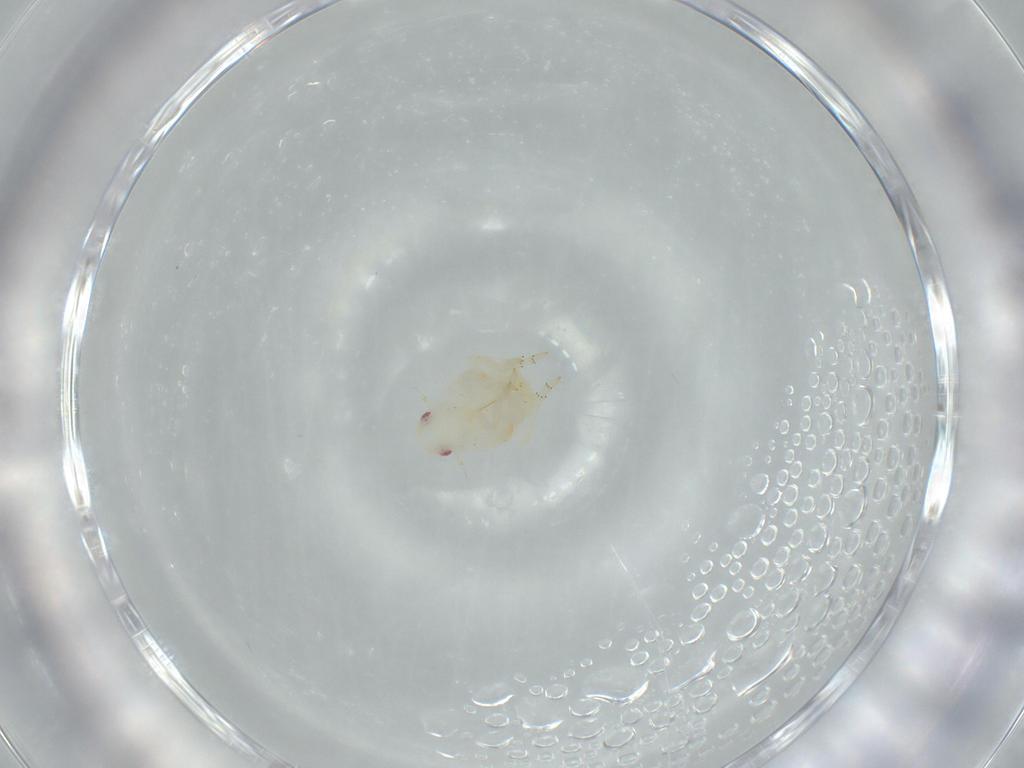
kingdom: Animalia
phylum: Arthropoda
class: Insecta
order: Hemiptera
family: Flatidae
